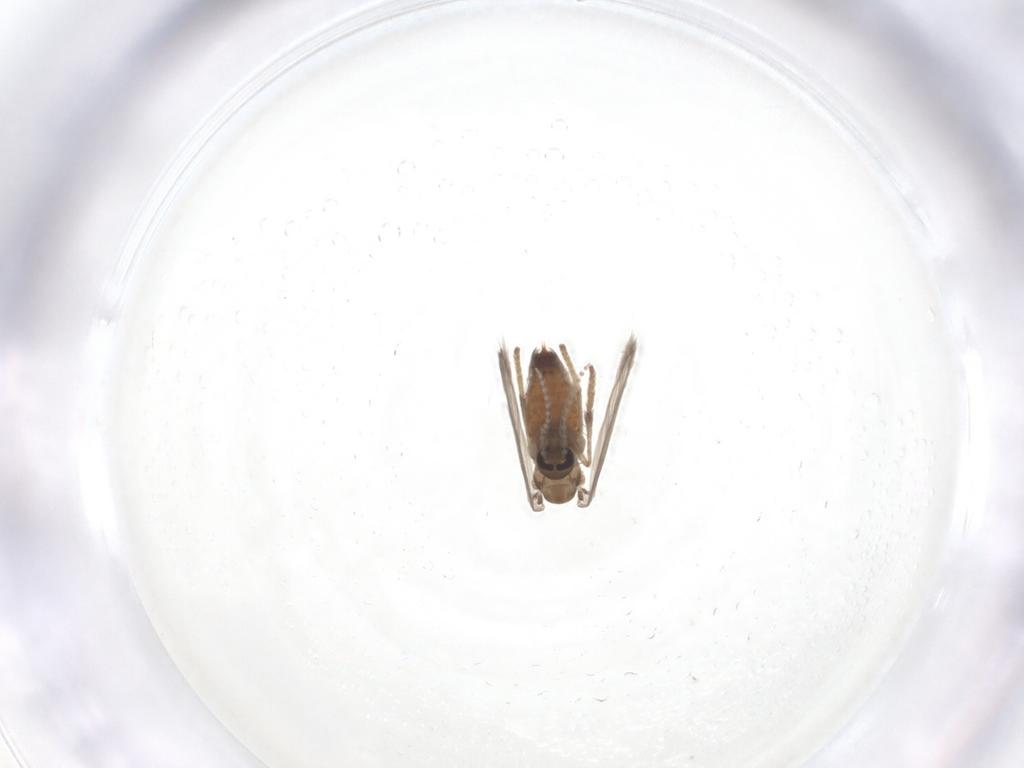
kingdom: Animalia
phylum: Arthropoda
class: Insecta
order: Diptera
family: Psychodidae
